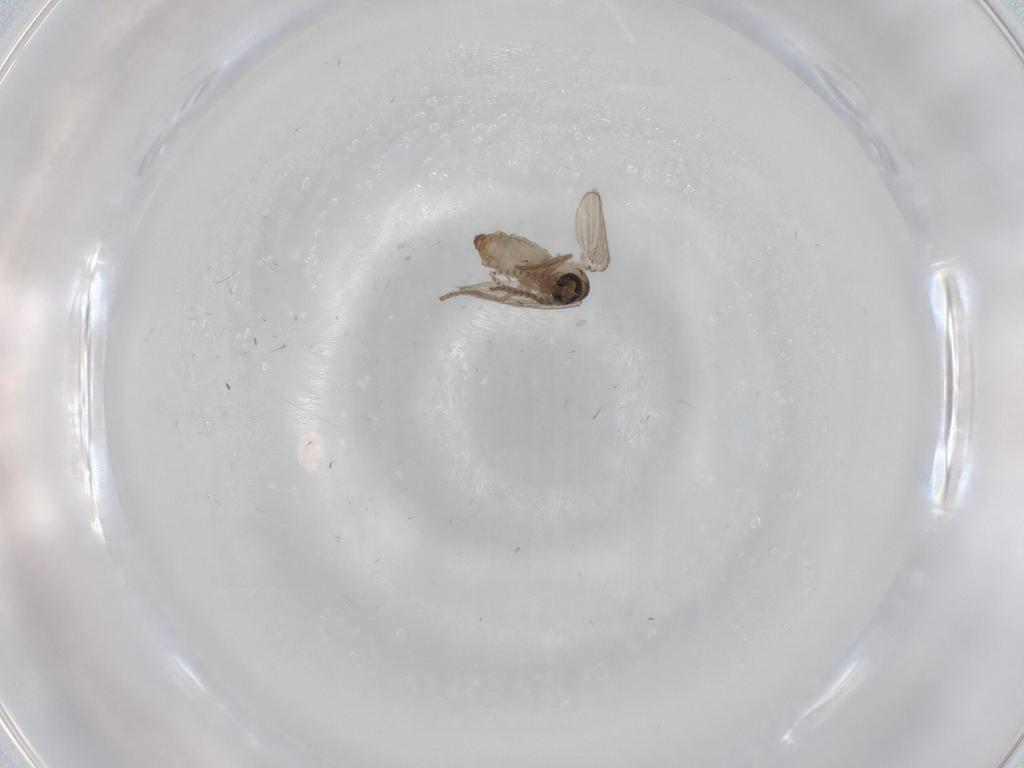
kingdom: Animalia
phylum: Arthropoda
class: Insecta
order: Diptera
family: Psychodidae
